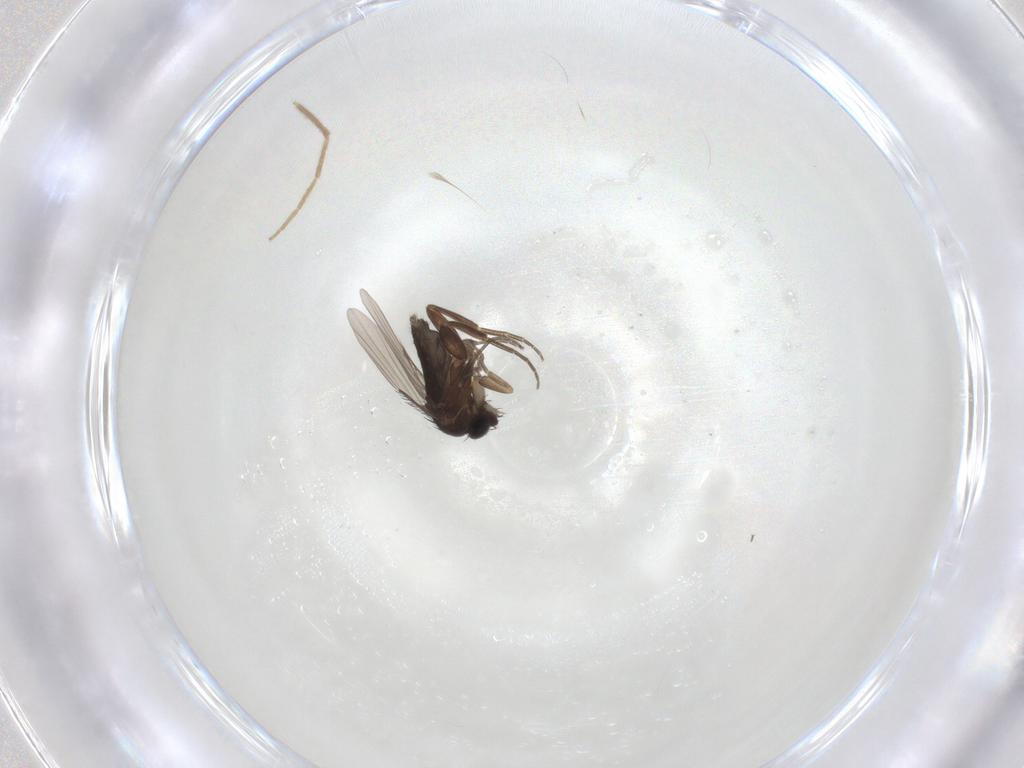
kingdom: Animalia
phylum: Arthropoda
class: Insecta
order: Diptera
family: Phoridae
